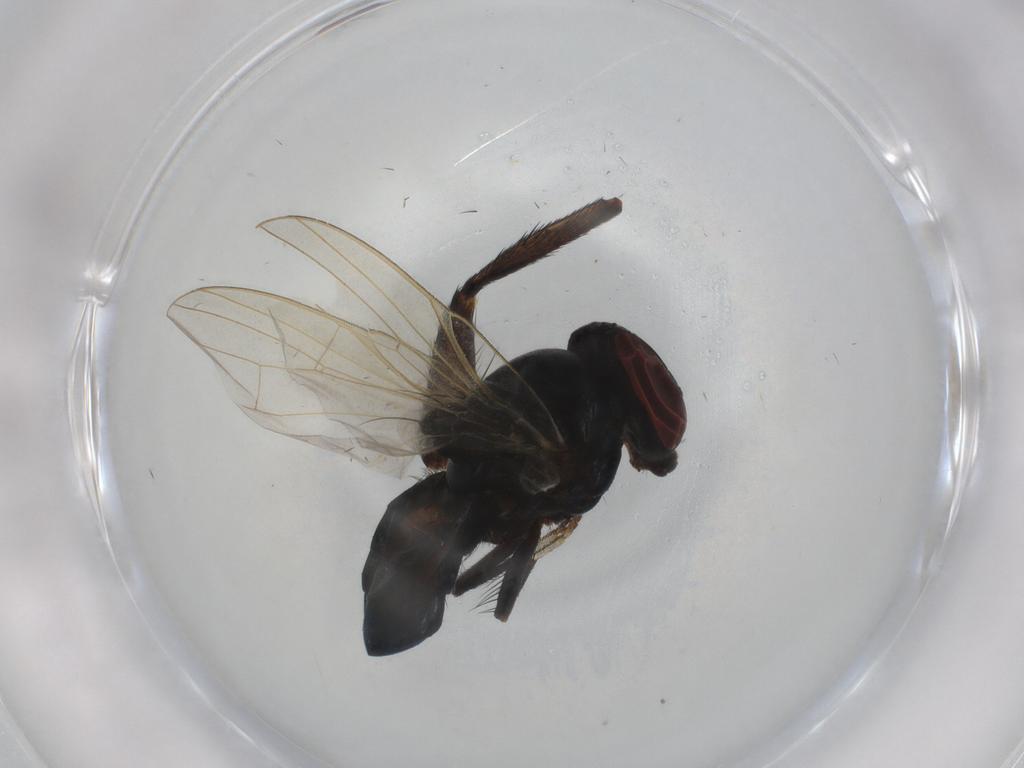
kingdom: Animalia
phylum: Arthropoda
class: Insecta
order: Diptera
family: Tachinidae
